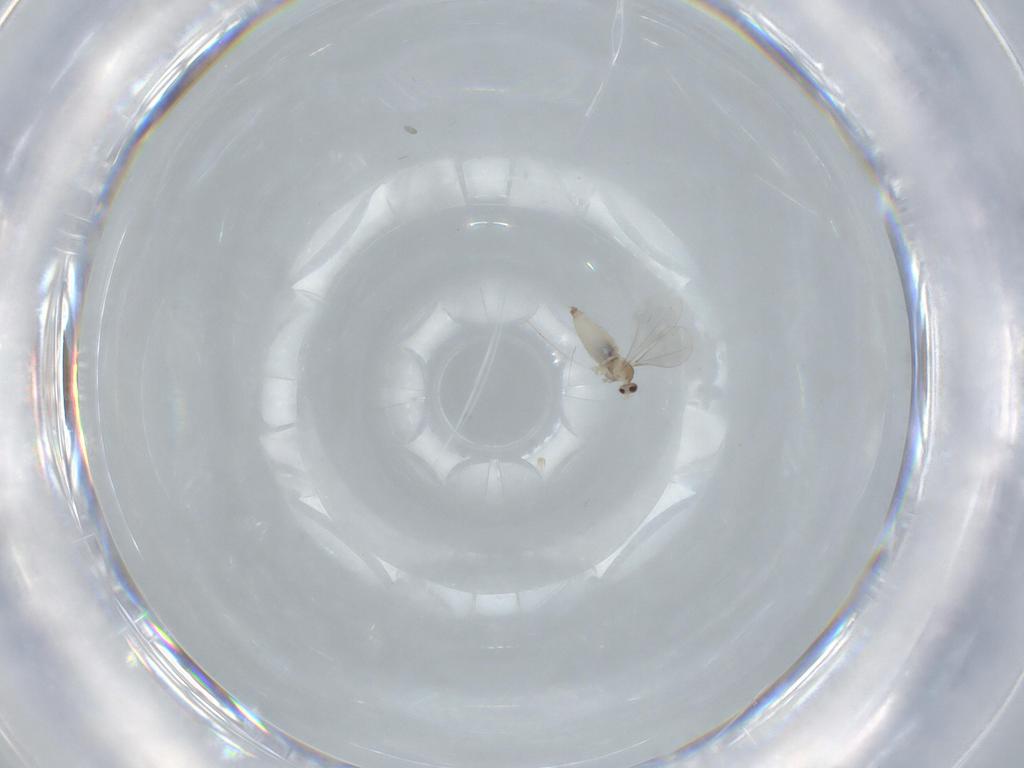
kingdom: Animalia
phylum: Arthropoda
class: Insecta
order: Diptera
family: Cecidomyiidae
